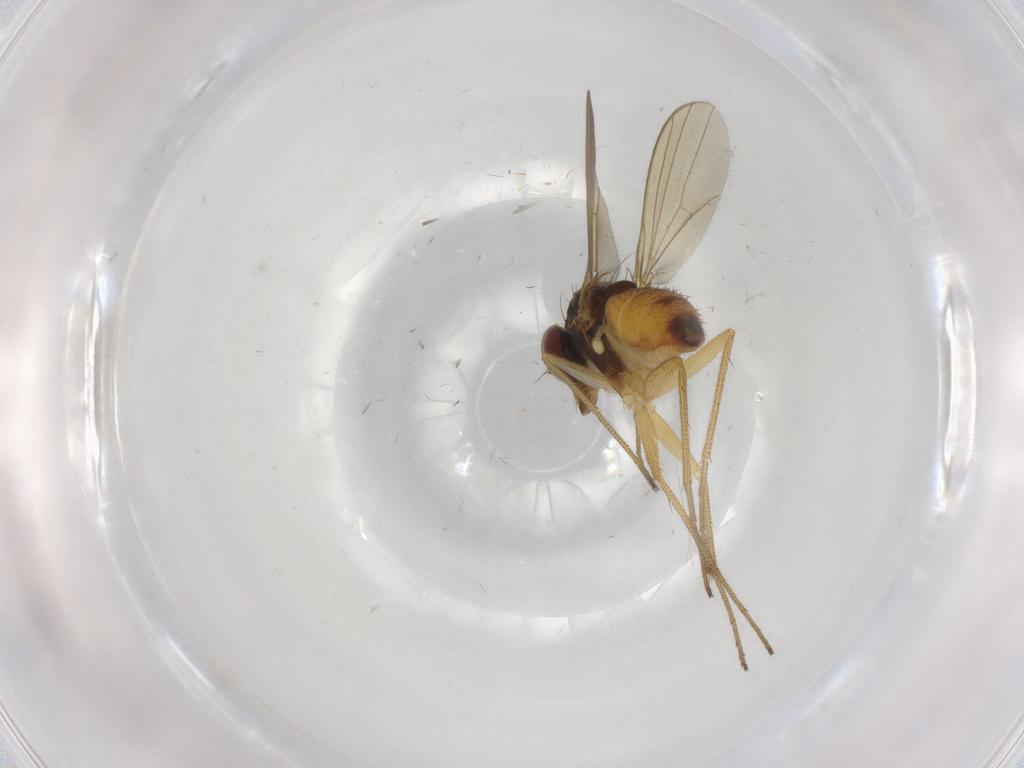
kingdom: Animalia
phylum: Arthropoda
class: Insecta
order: Diptera
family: Dolichopodidae
